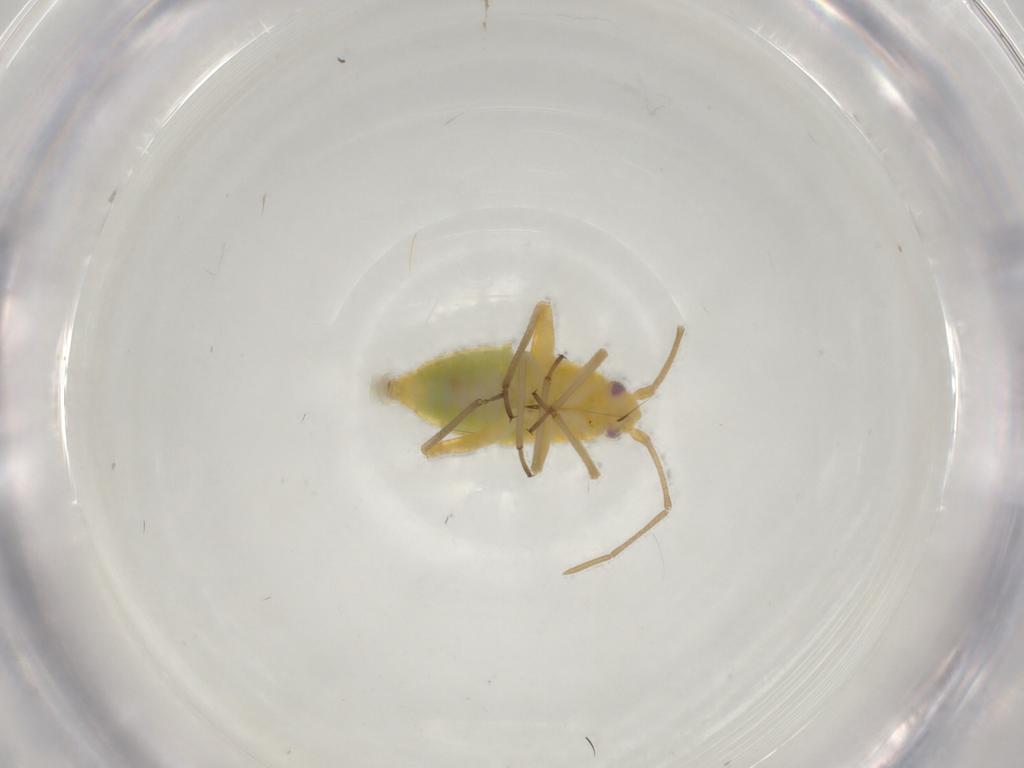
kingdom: Animalia
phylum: Arthropoda
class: Insecta
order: Hemiptera
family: Miridae
